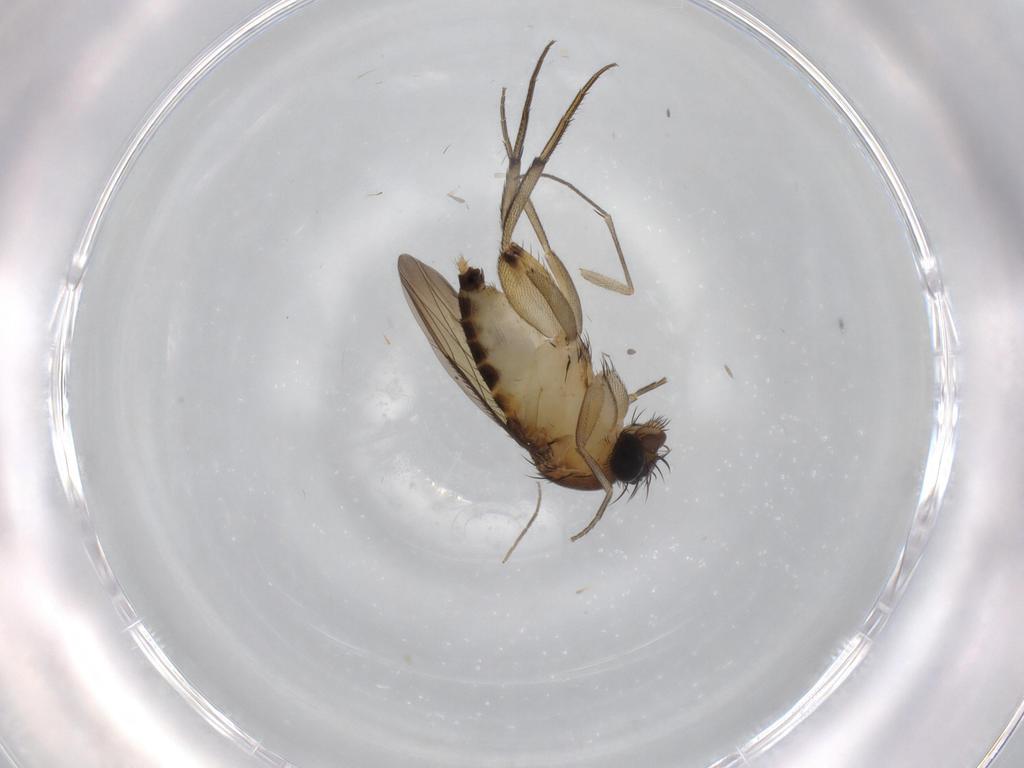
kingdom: Animalia
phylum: Arthropoda
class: Insecta
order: Diptera
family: Phoridae
